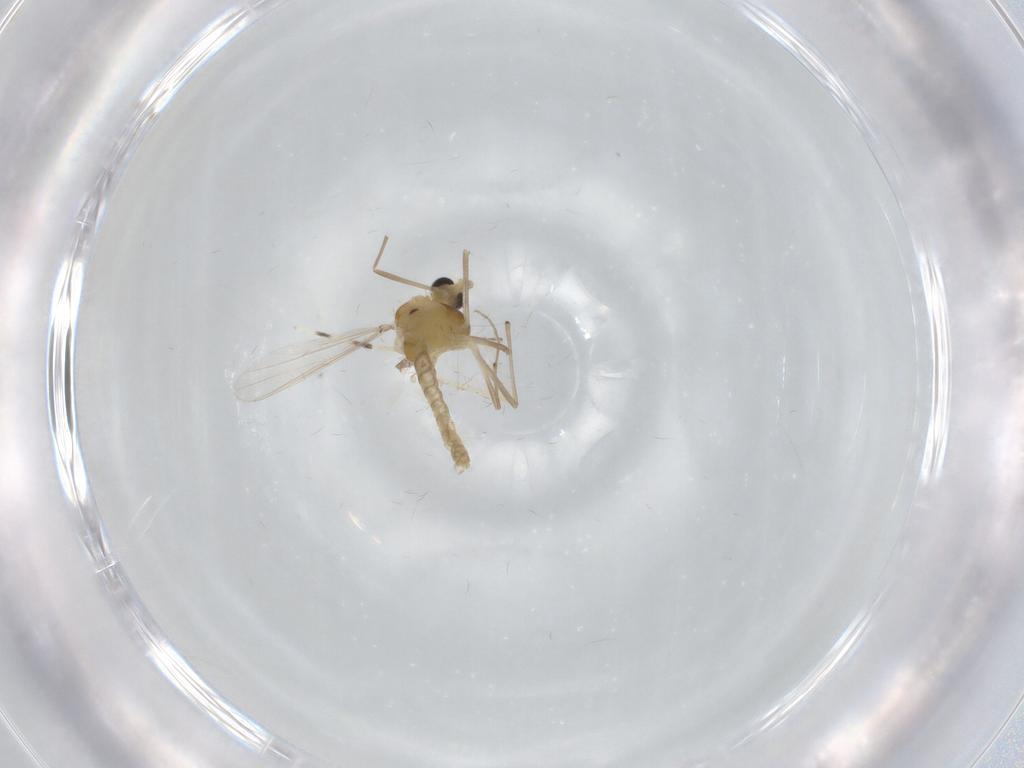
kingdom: Animalia
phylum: Arthropoda
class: Insecta
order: Diptera
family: Chironomidae
